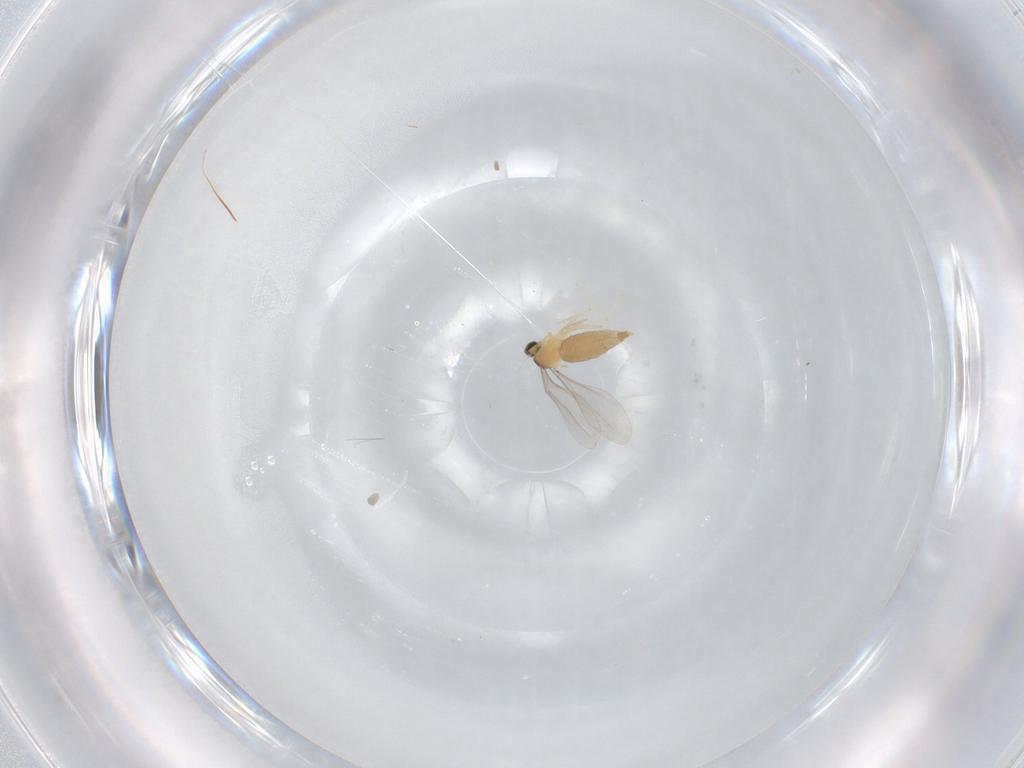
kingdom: Animalia
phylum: Arthropoda
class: Insecta
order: Diptera
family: Cecidomyiidae
